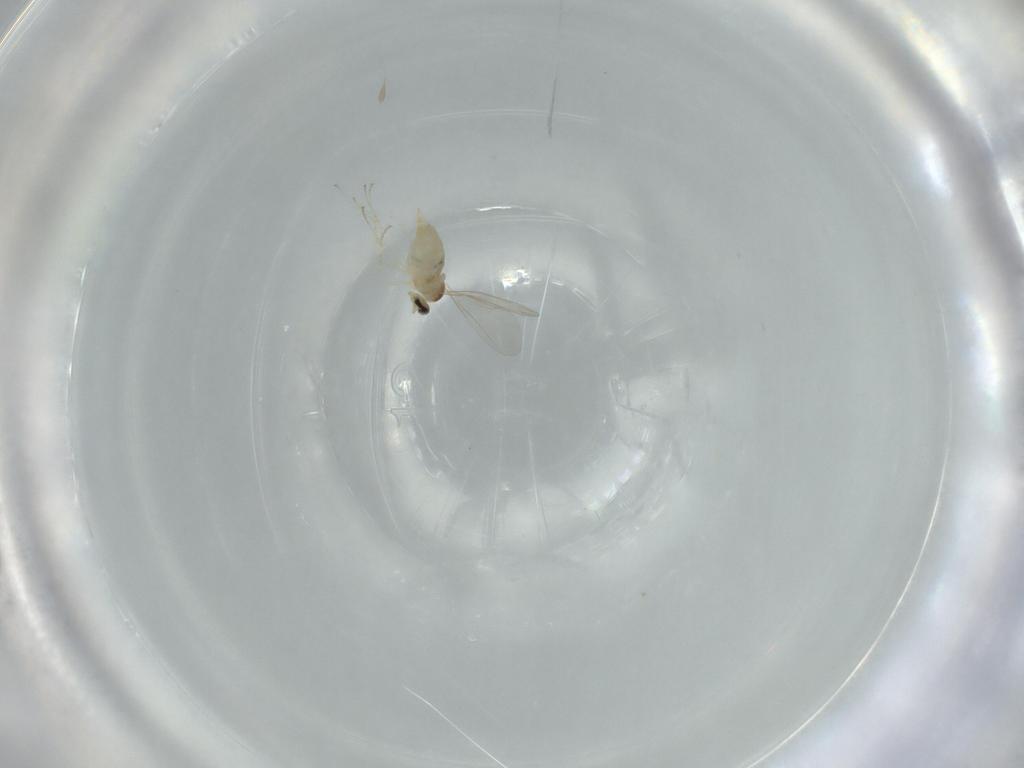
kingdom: Animalia
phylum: Arthropoda
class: Insecta
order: Diptera
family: Cecidomyiidae
